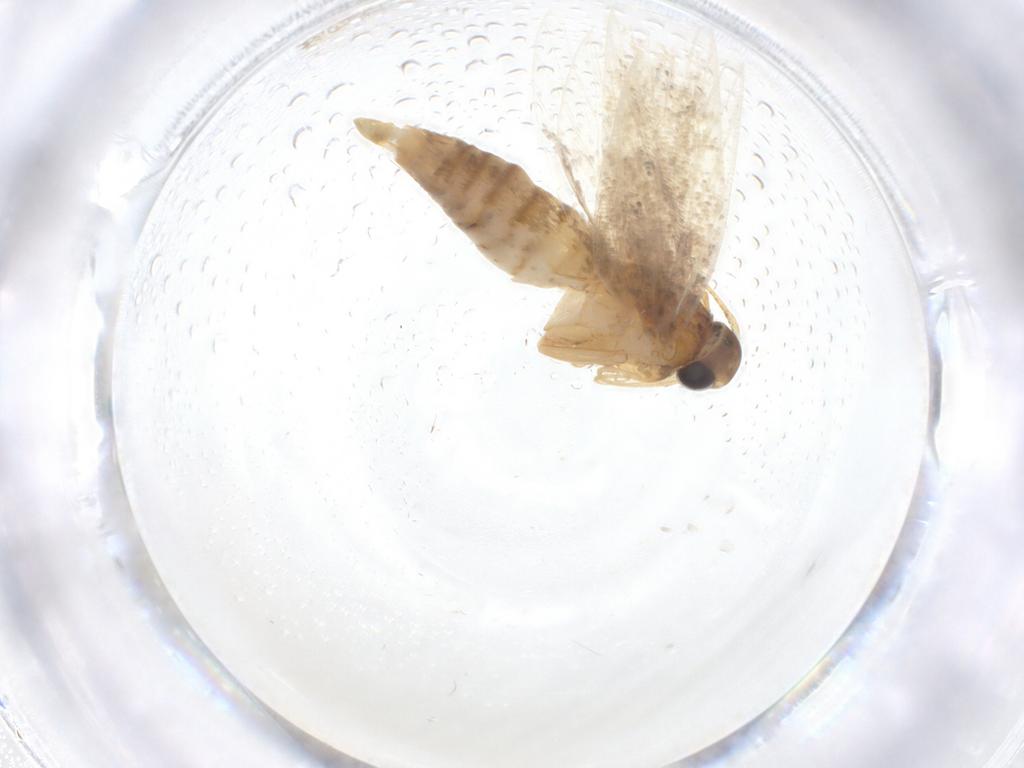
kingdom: Animalia
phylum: Arthropoda
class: Insecta
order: Lepidoptera
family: Oecophoridae
